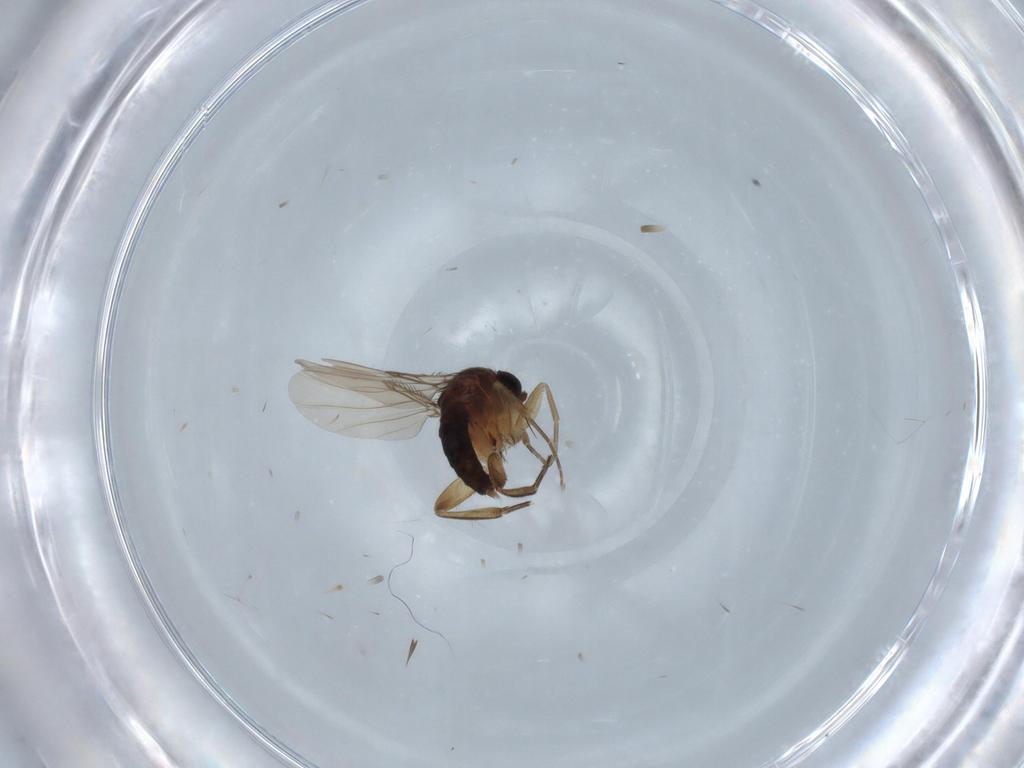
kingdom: Animalia
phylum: Arthropoda
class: Insecta
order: Diptera
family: Phoridae
